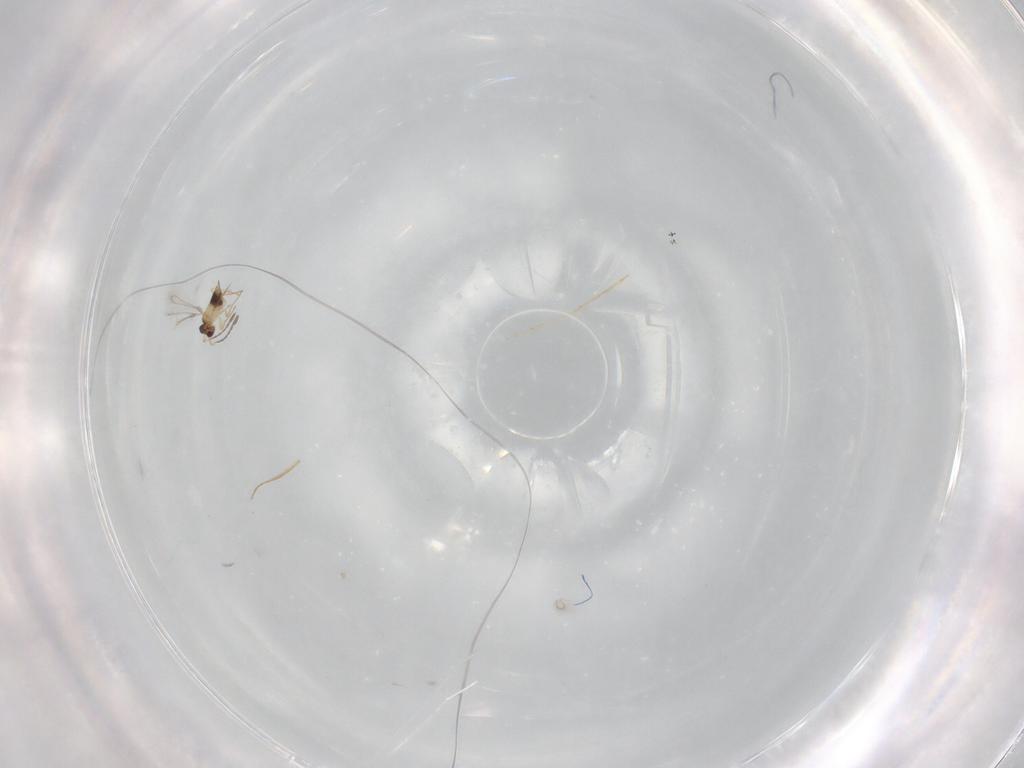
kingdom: Animalia
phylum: Arthropoda
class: Insecta
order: Hymenoptera
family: Mymaridae
